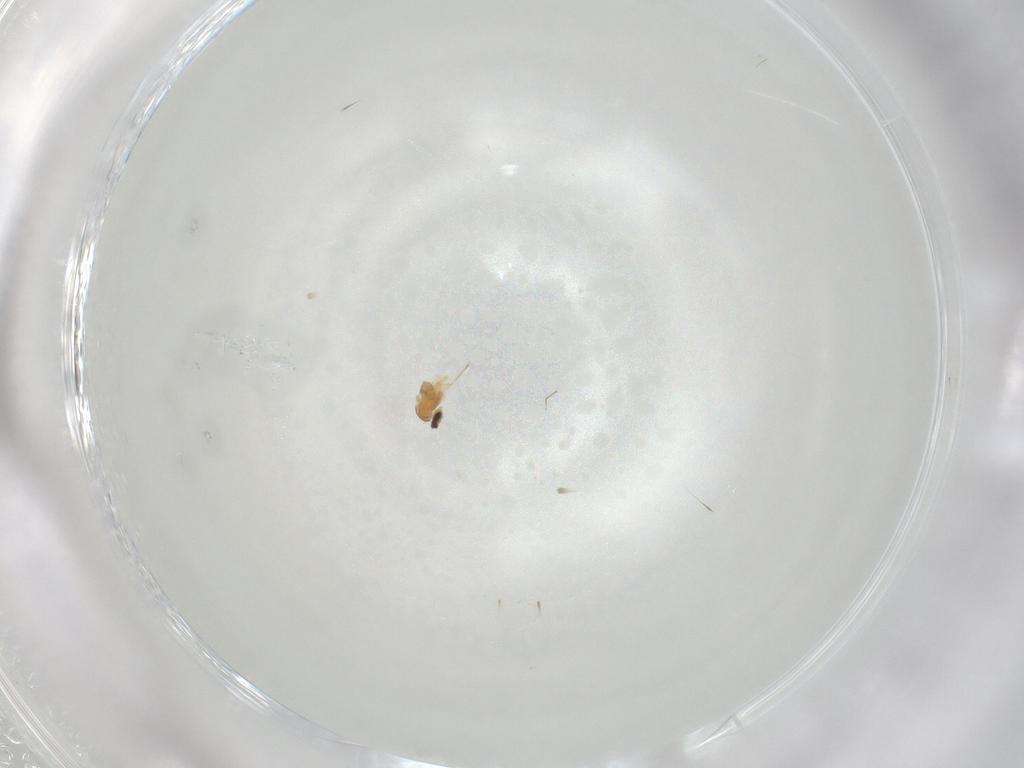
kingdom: Animalia
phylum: Arthropoda
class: Insecta
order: Diptera
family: Cecidomyiidae
